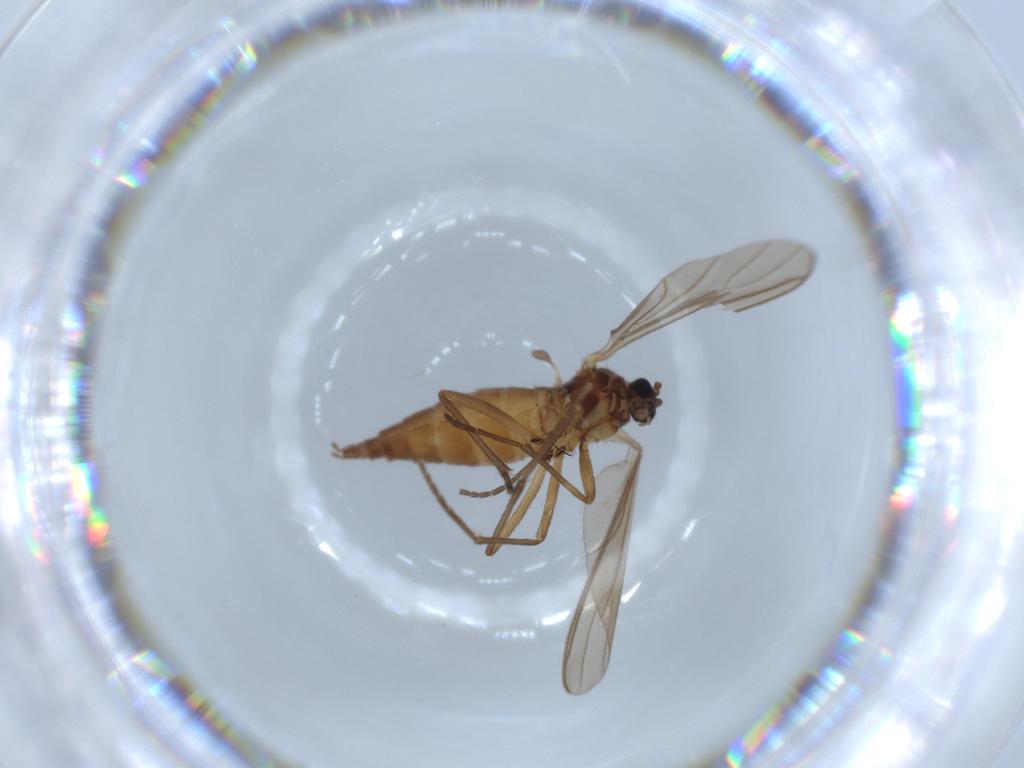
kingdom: Animalia
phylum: Arthropoda
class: Insecta
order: Diptera
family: Hybotidae
